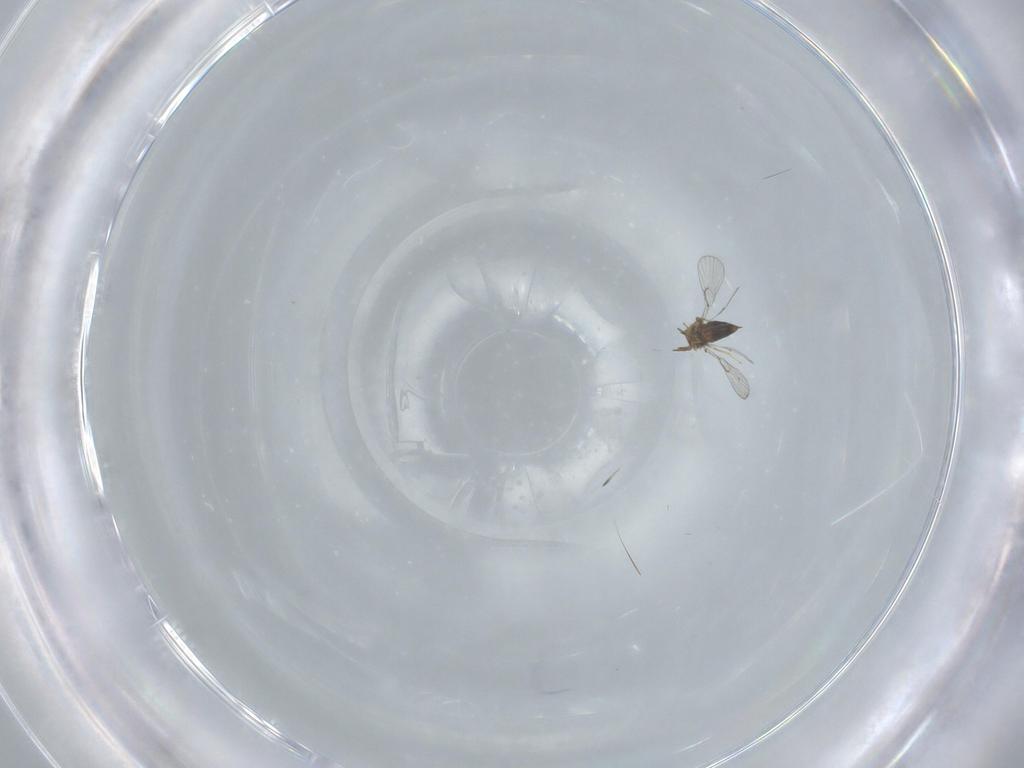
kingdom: Animalia
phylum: Arthropoda
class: Insecta
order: Hymenoptera
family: Trichogrammatidae
